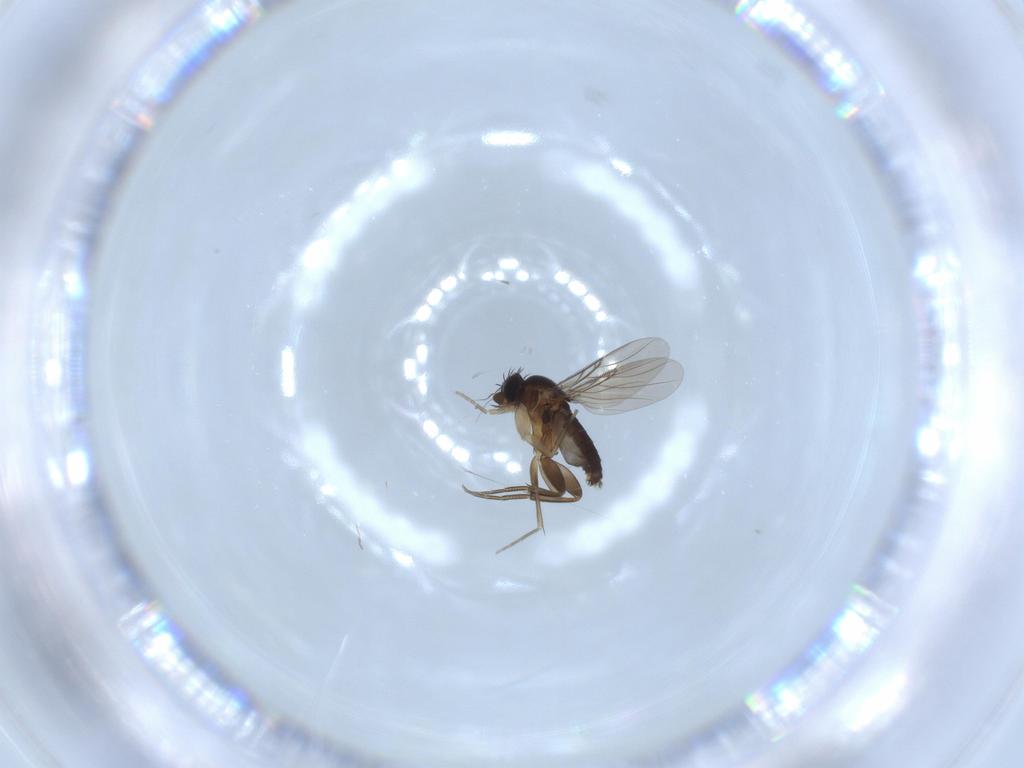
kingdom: Animalia
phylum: Arthropoda
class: Insecta
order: Diptera
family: Phoridae
